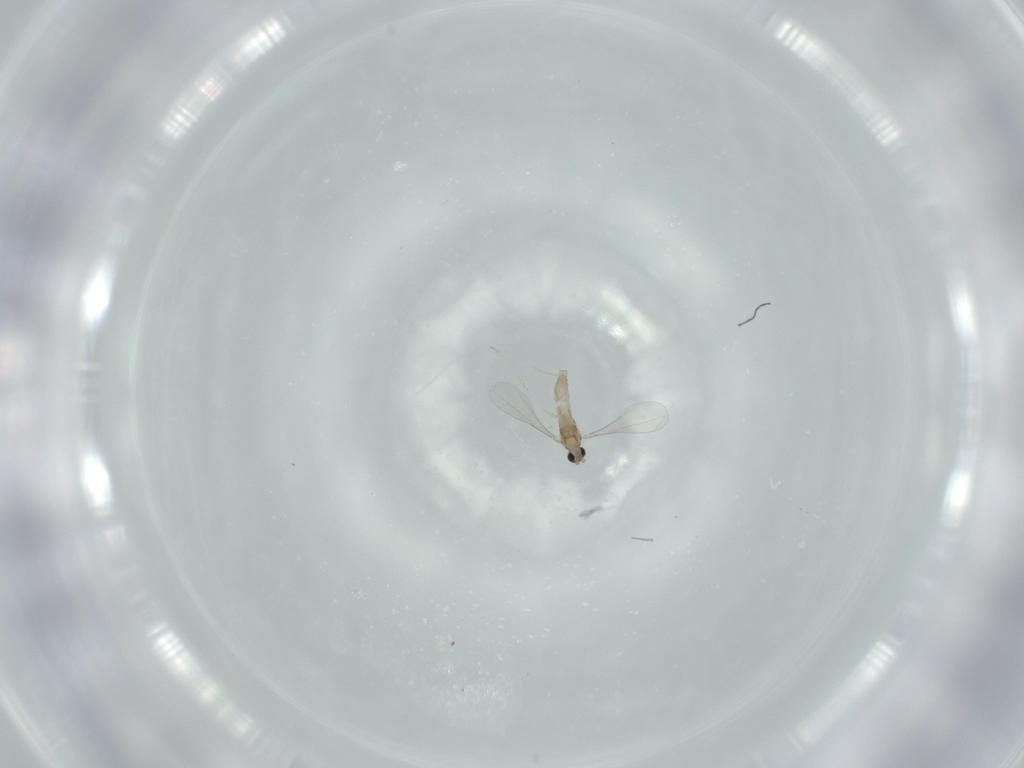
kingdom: Animalia
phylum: Arthropoda
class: Insecta
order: Diptera
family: Cecidomyiidae
